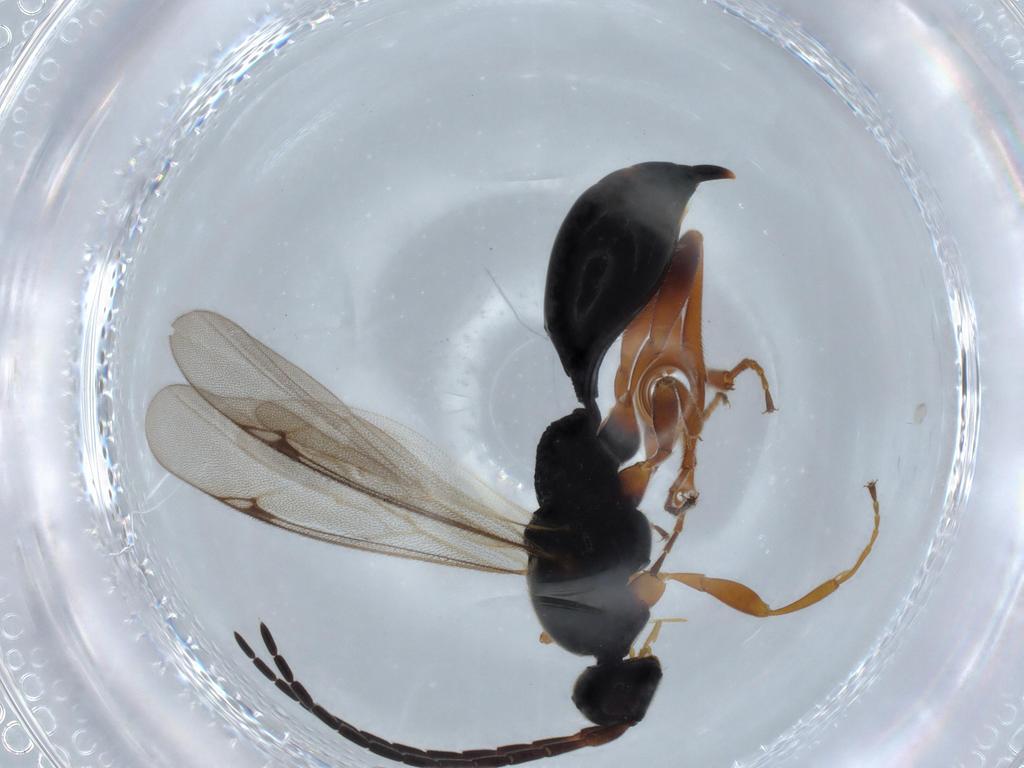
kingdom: Animalia
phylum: Arthropoda
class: Insecta
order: Hymenoptera
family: Proctotrupidae
